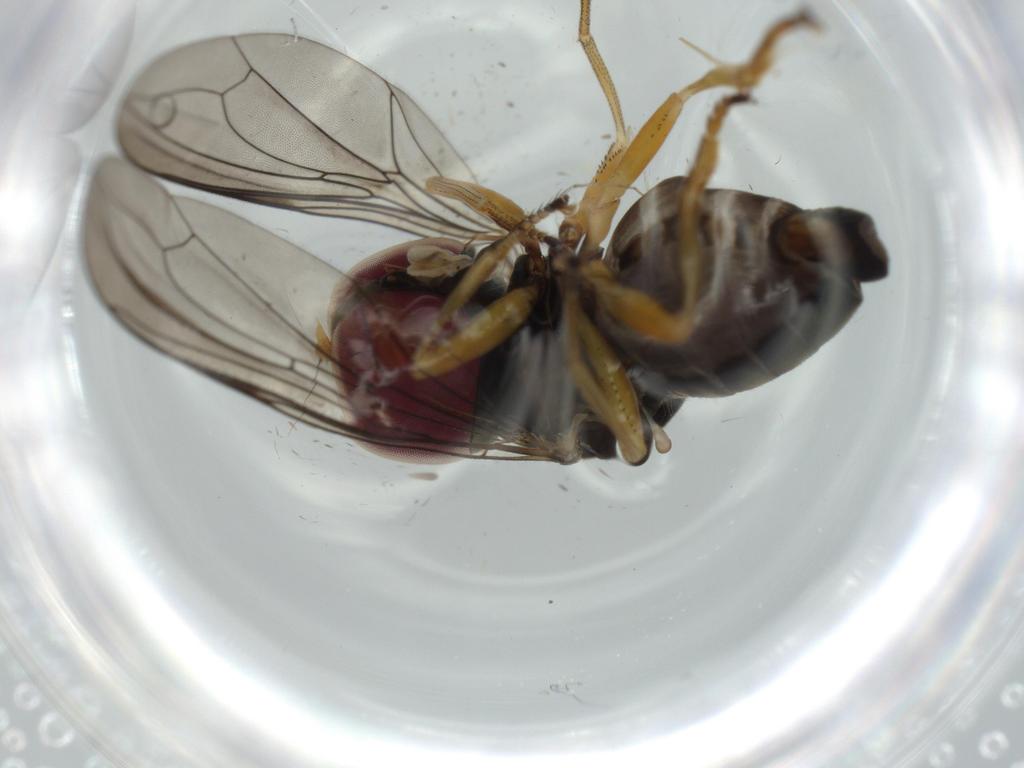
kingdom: Animalia
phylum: Arthropoda
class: Insecta
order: Diptera
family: Chironomidae
